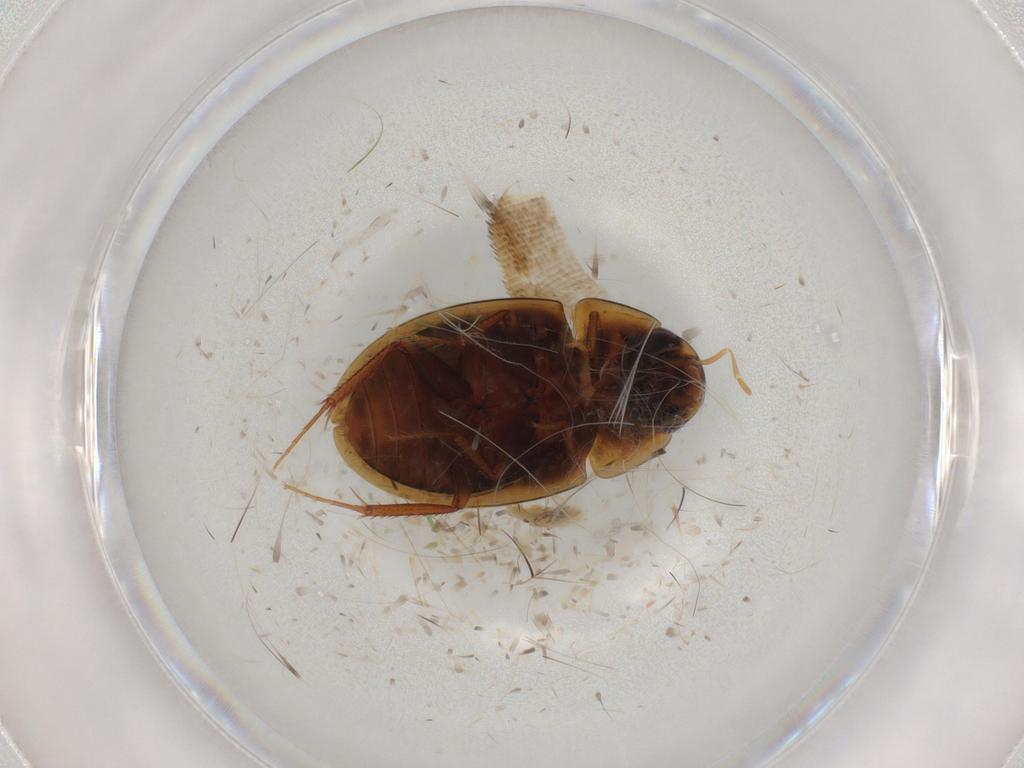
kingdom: Animalia
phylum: Arthropoda
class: Insecta
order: Coleoptera
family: Hydrophilidae
